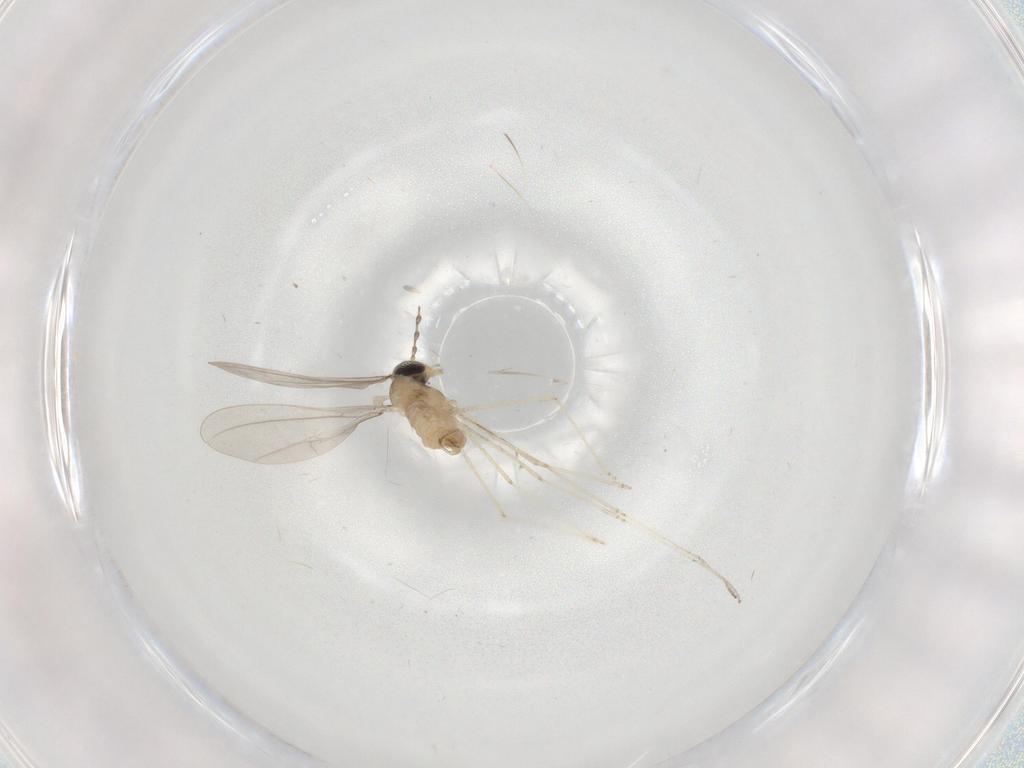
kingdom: Animalia
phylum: Arthropoda
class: Insecta
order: Diptera
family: Cecidomyiidae
